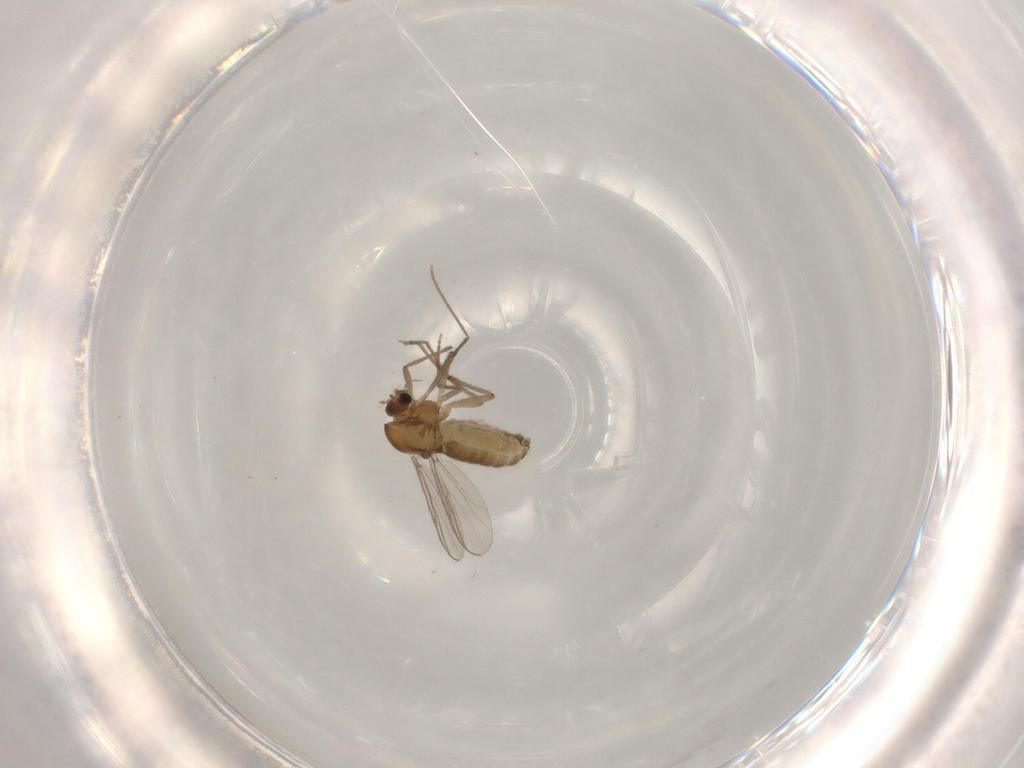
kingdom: Animalia
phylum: Arthropoda
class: Insecta
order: Diptera
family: Chironomidae
